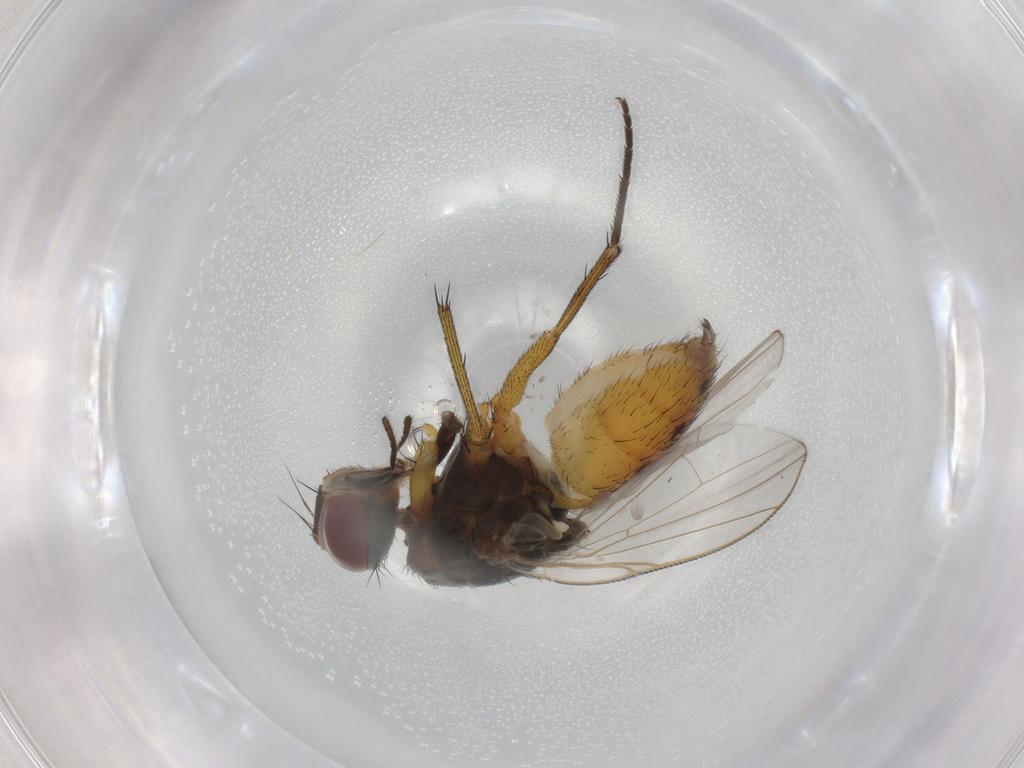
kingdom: Animalia
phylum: Arthropoda
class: Insecta
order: Diptera
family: Muscidae
